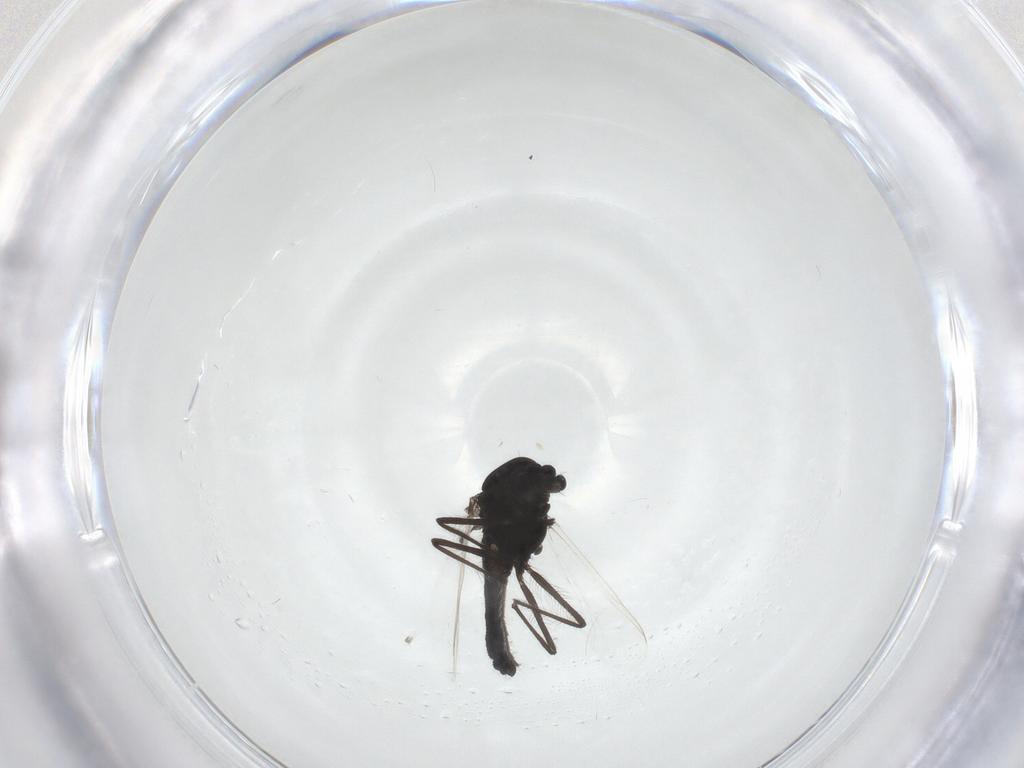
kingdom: Animalia
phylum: Arthropoda
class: Insecta
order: Diptera
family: Chironomidae
